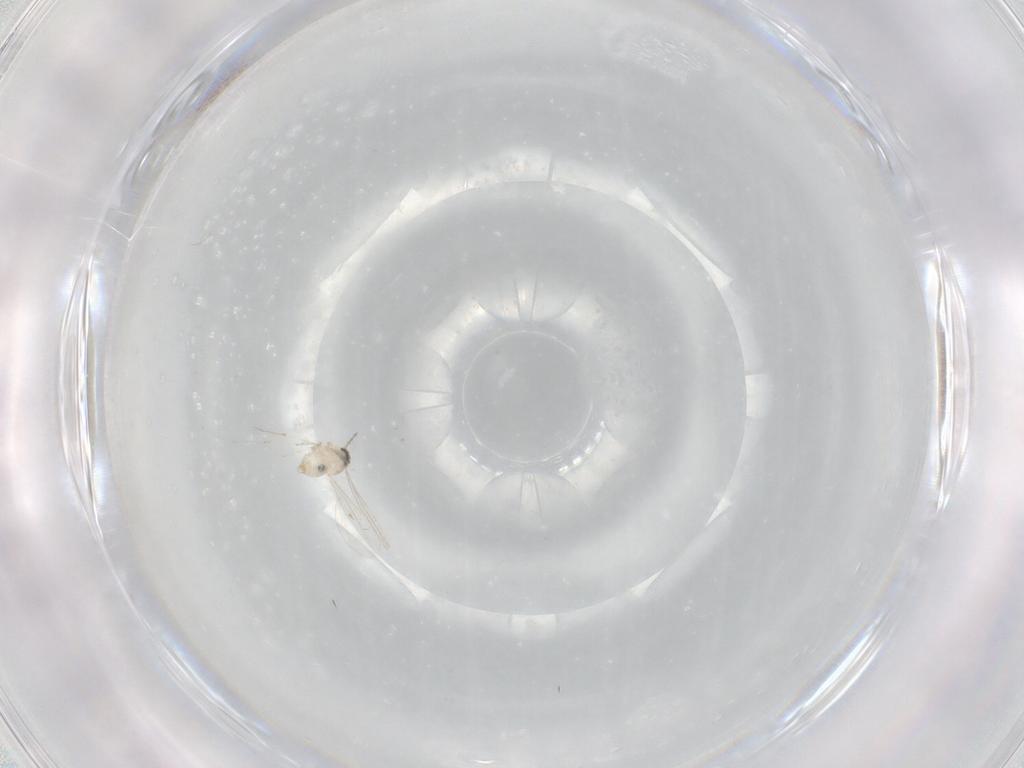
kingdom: Animalia
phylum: Arthropoda
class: Insecta
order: Diptera
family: Cecidomyiidae
